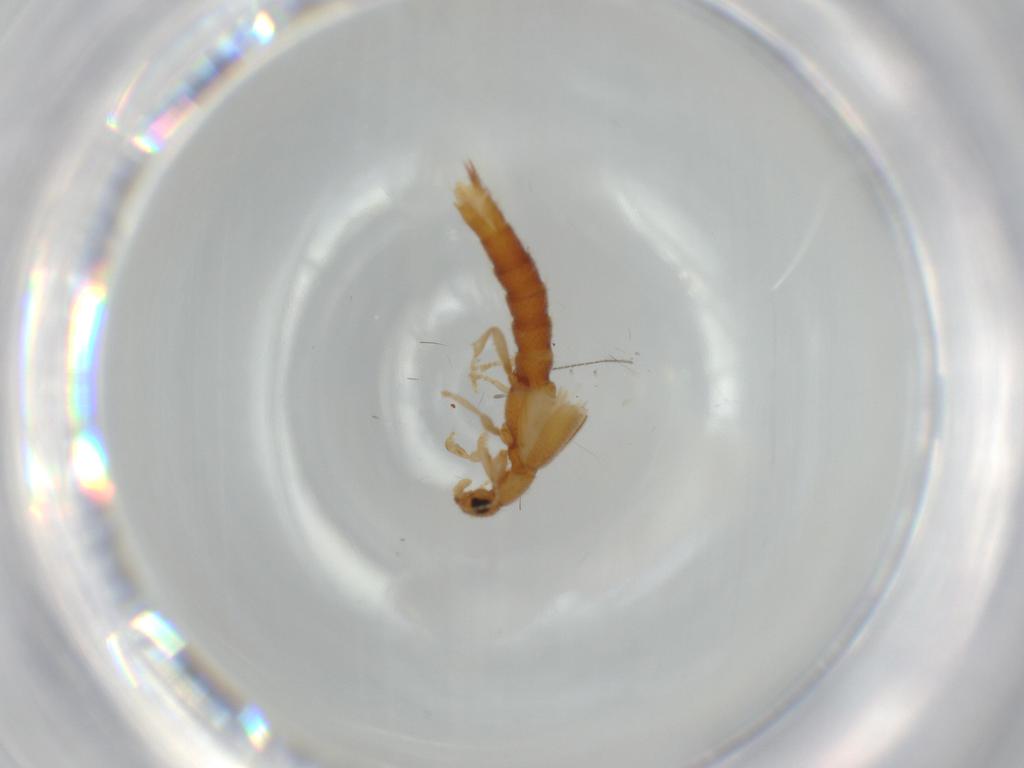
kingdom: Animalia
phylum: Arthropoda
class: Insecta
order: Coleoptera
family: Staphylinidae
